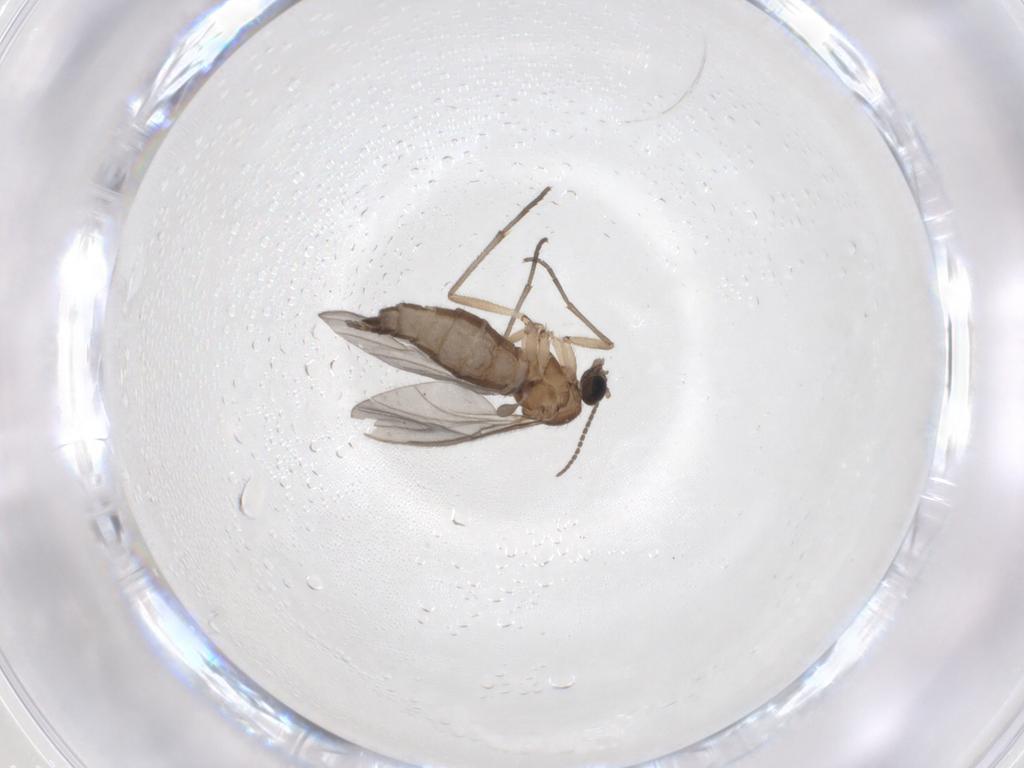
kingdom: Animalia
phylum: Arthropoda
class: Insecta
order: Diptera
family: Sciaridae
